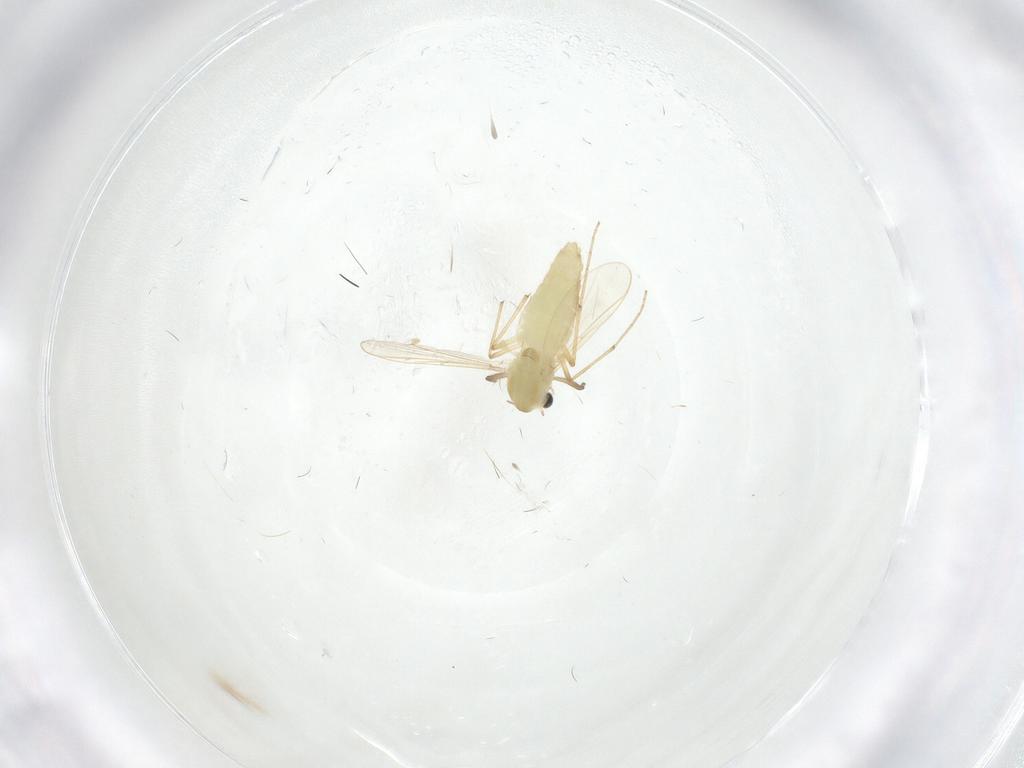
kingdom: Animalia
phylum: Arthropoda
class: Insecta
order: Diptera
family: Chironomidae
